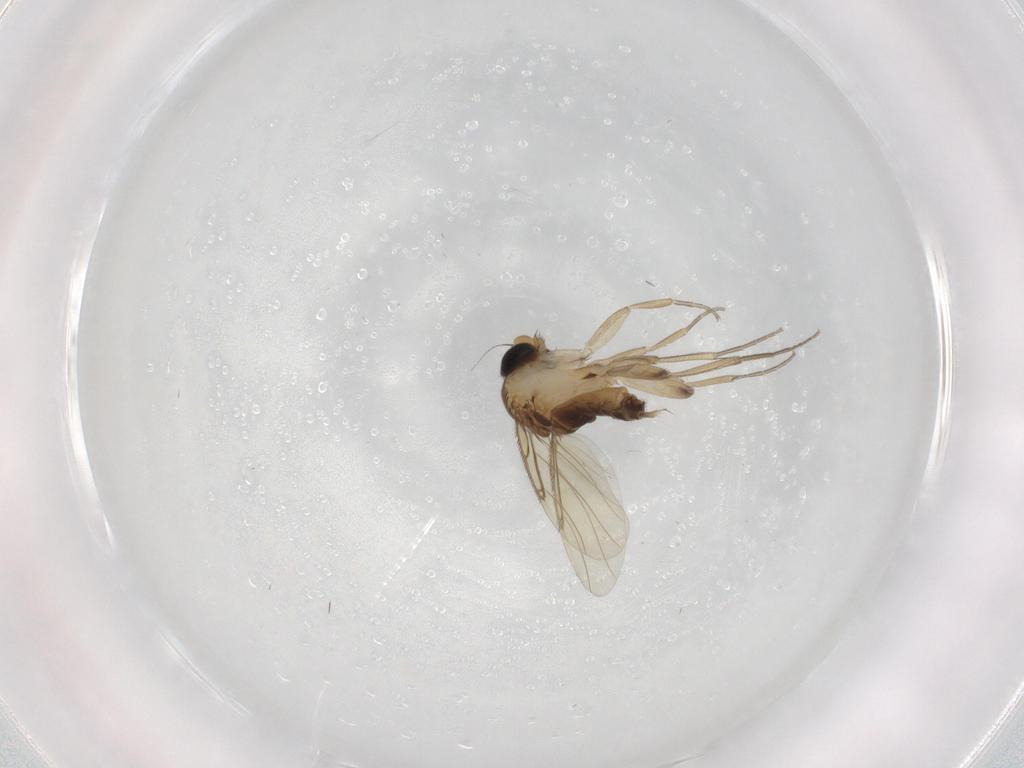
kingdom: Animalia
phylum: Arthropoda
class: Insecta
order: Diptera
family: Phoridae
